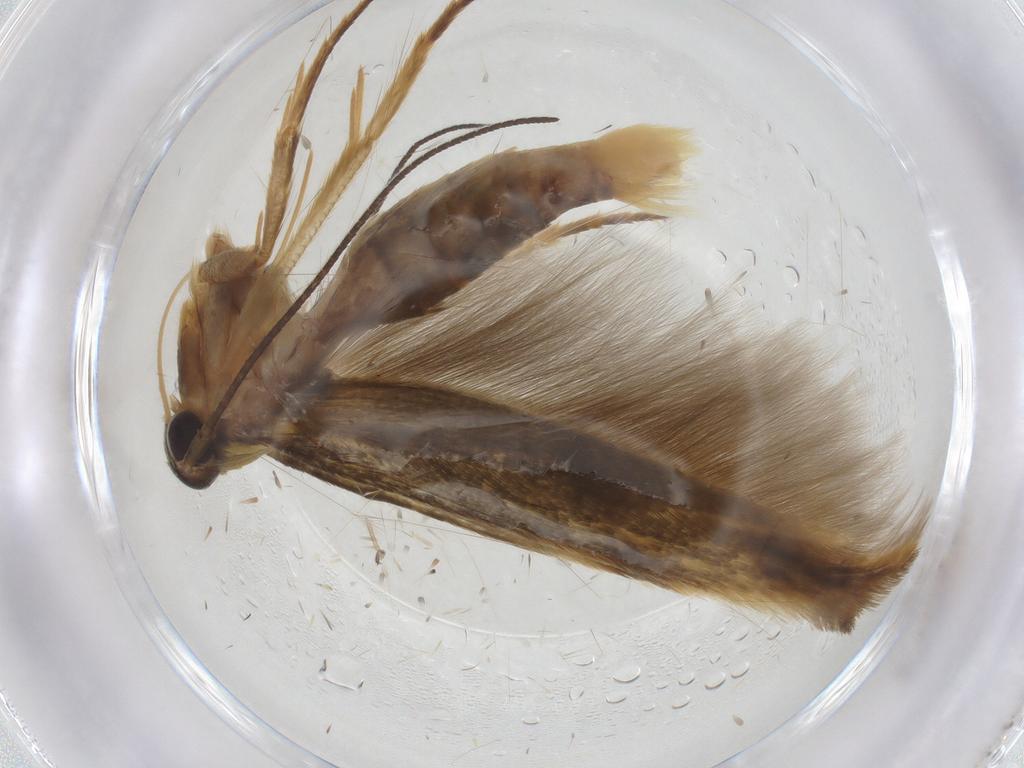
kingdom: Animalia
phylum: Arthropoda
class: Insecta
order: Lepidoptera
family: Stathmopodidae
